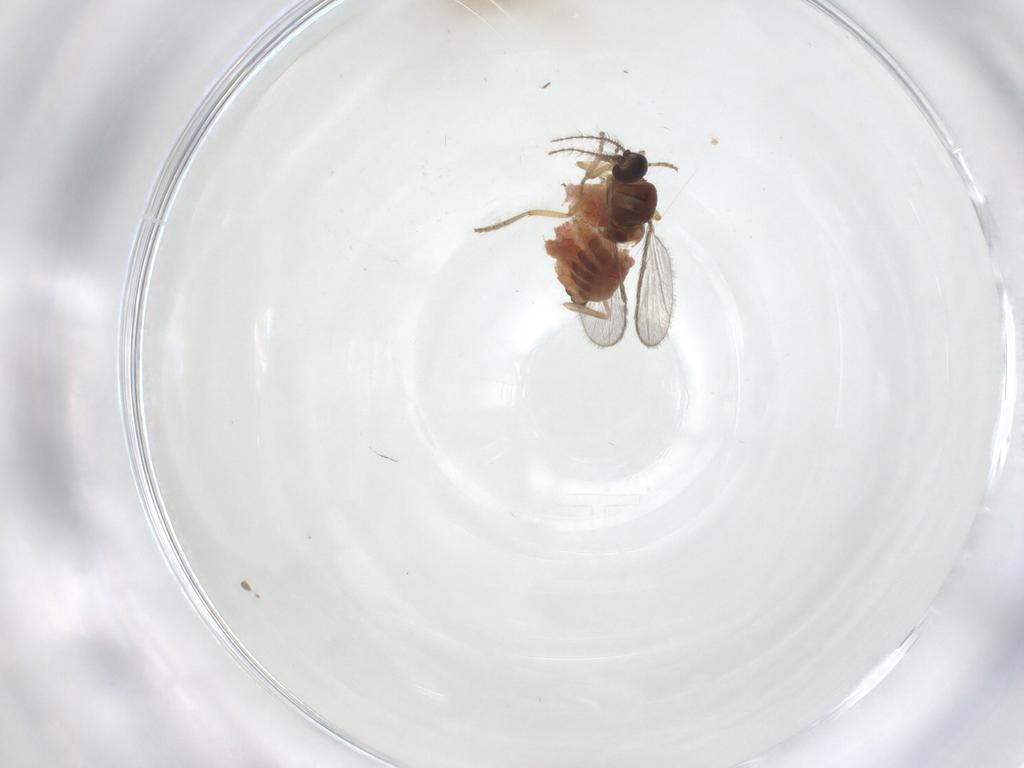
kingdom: Animalia
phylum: Arthropoda
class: Insecta
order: Diptera
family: Ceratopogonidae
